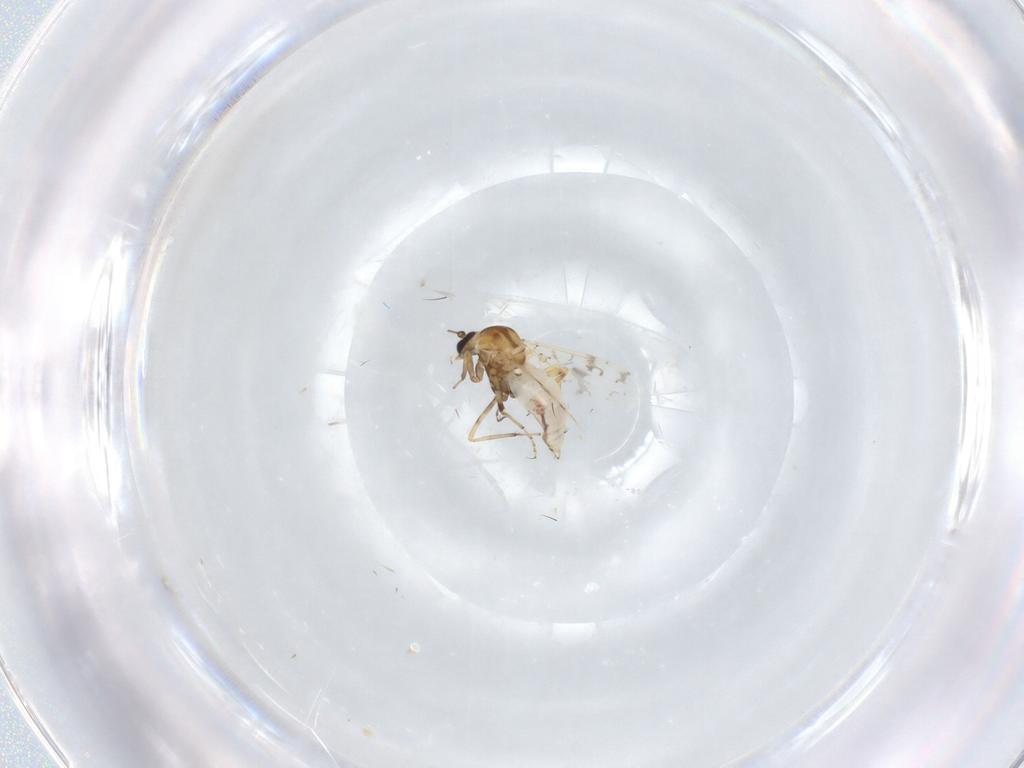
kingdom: Animalia
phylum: Arthropoda
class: Insecta
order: Diptera
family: Ceratopogonidae
